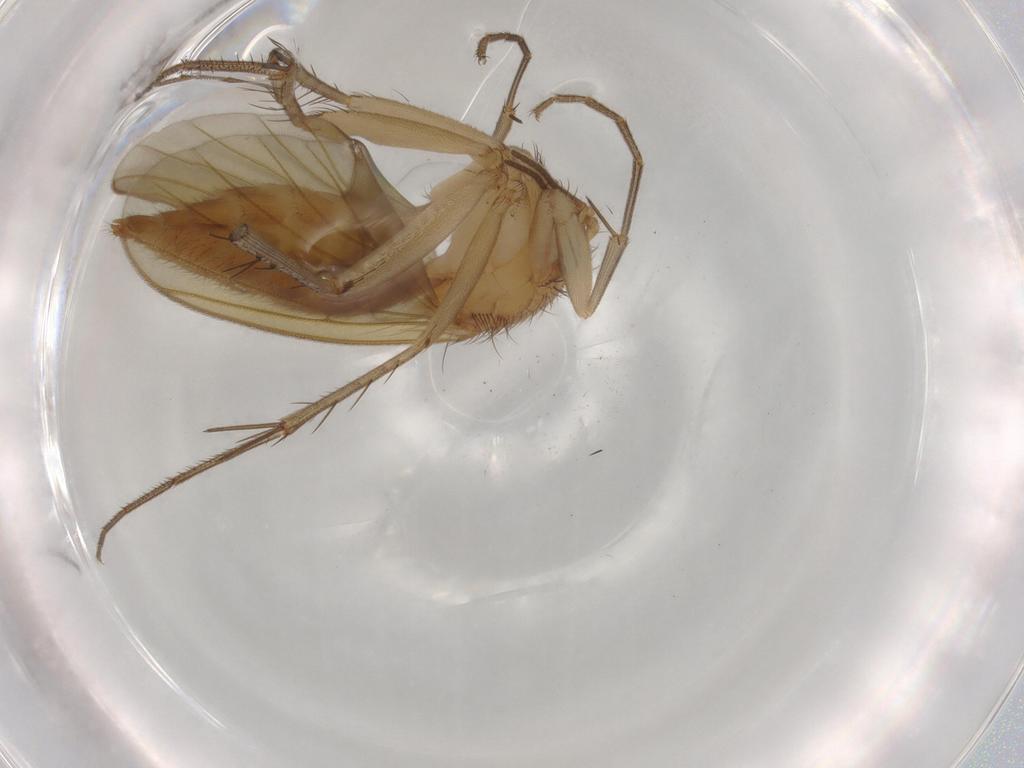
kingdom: Animalia
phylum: Arthropoda
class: Insecta
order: Diptera
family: Mycetophilidae
